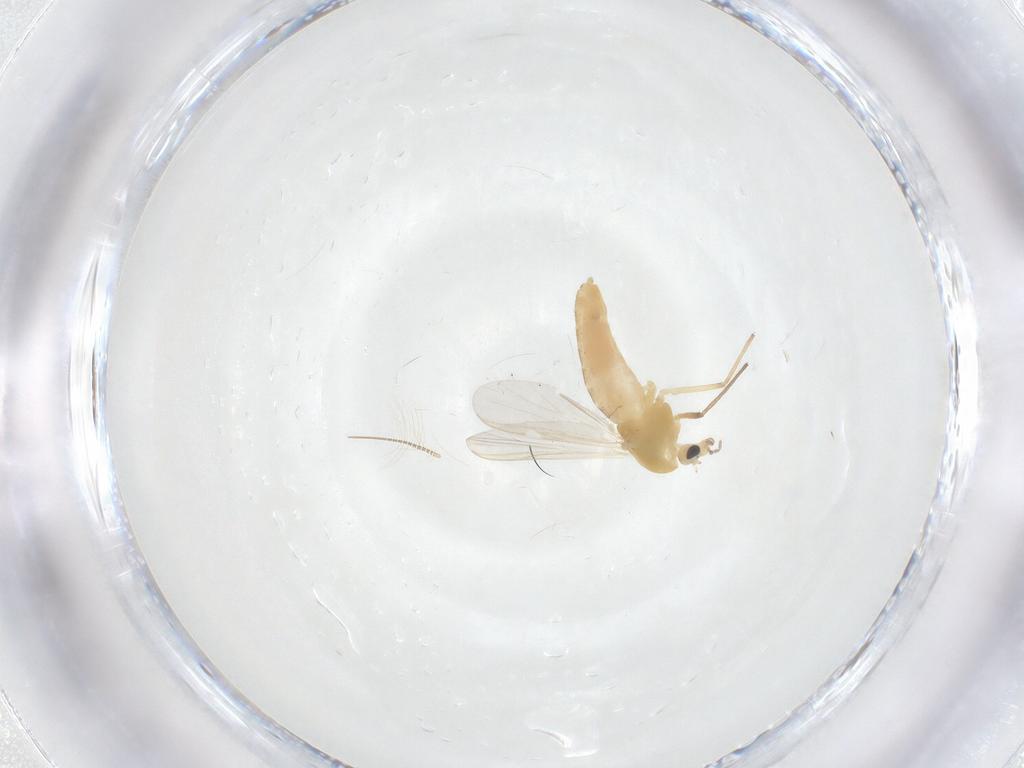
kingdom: Animalia
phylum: Arthropoda
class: Insecta
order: Diptera
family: Chironomidae
